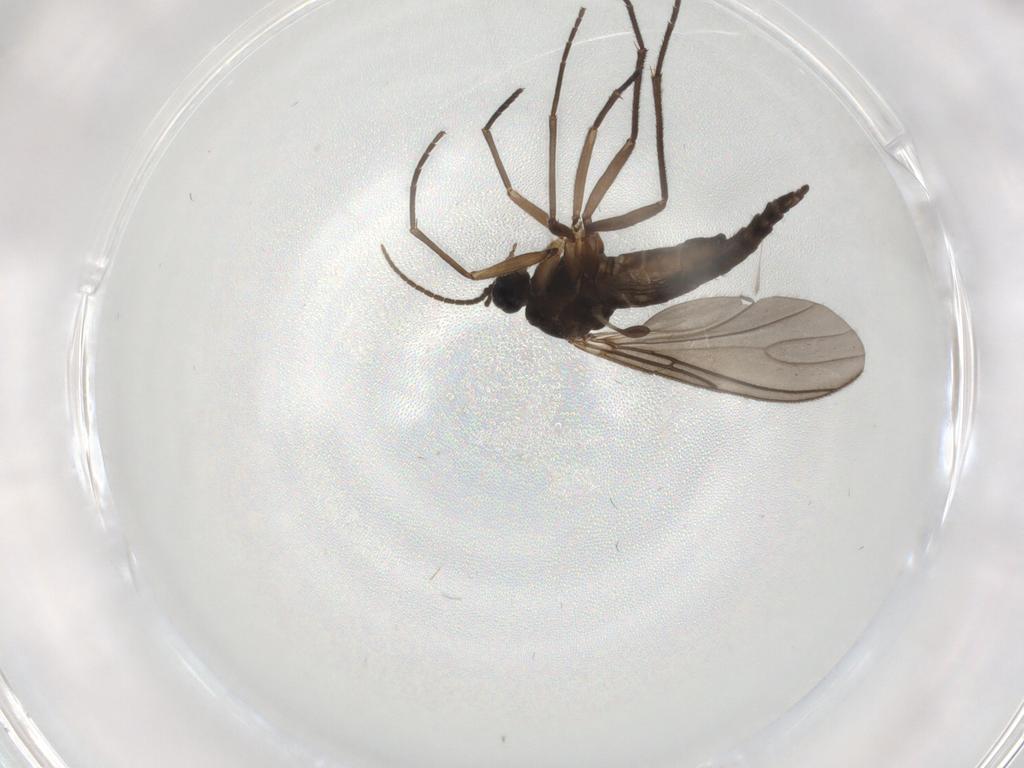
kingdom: Animalia
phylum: Arthropoda
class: Insecta
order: Diptera
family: Sciaridae
